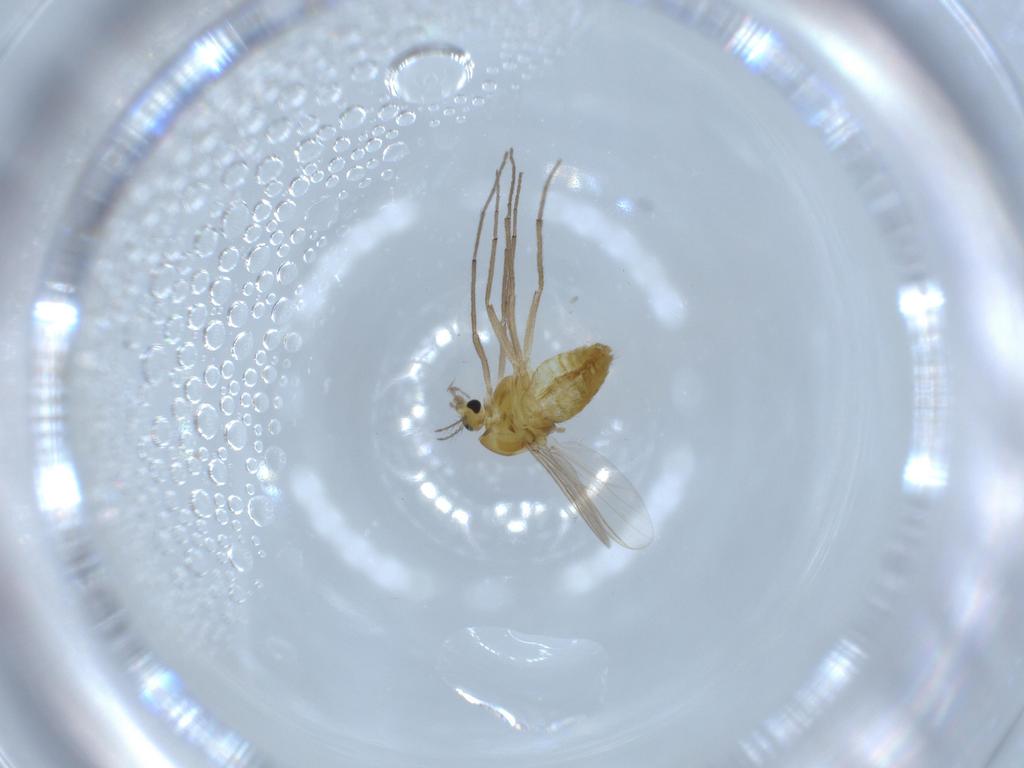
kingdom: Animalia
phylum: Arthropoda
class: Insecta
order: Diptera
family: Chironomidae
